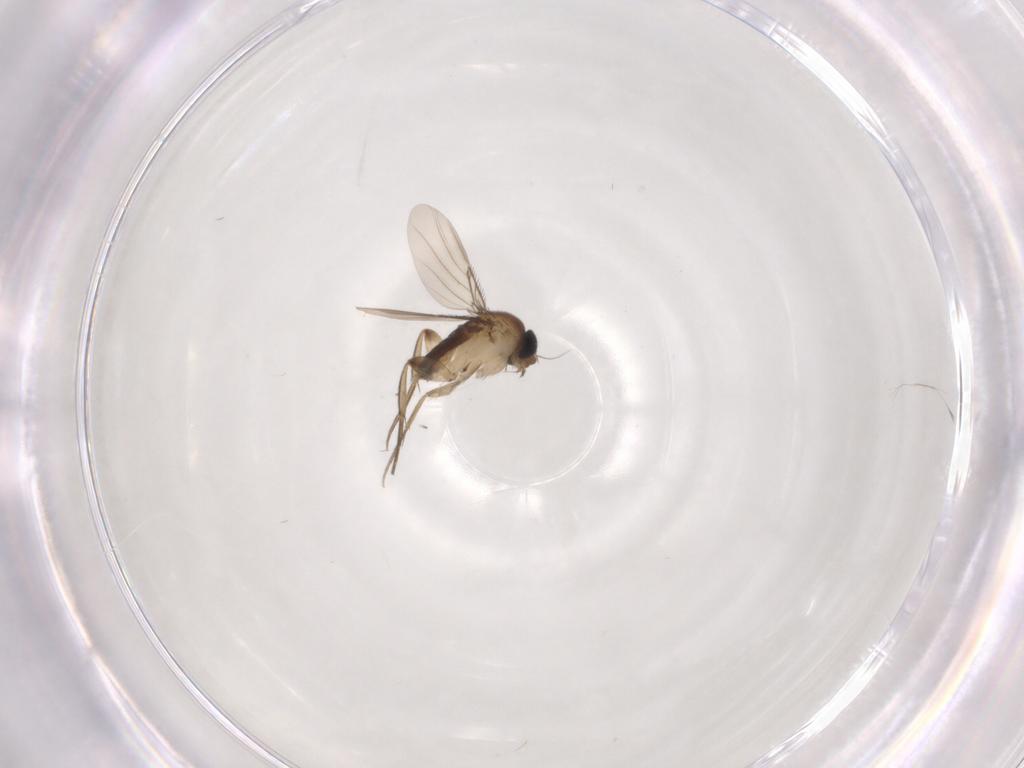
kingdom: Animalia
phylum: Arthropoda
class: Insecta
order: Diptera
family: Phoridae
